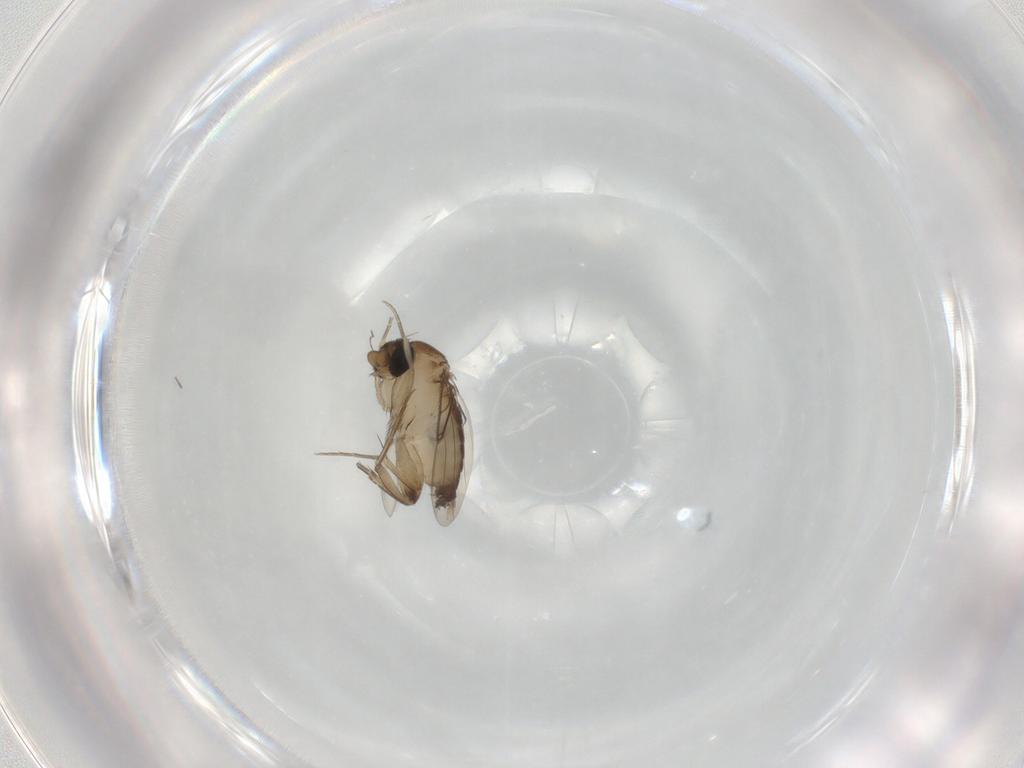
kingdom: Animalia
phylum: Arthropoda
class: Insecta
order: Diptera
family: Phoridae
